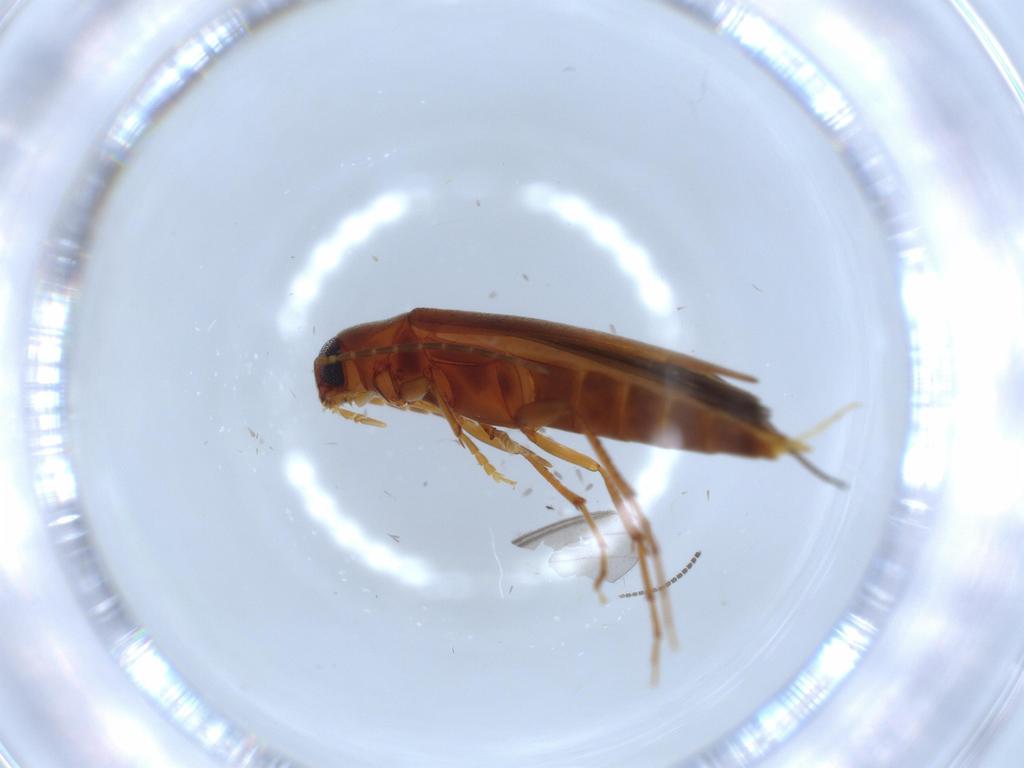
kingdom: Animalia
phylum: Arthropoda
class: Insecta
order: Coleoptera
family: Melandryidae
